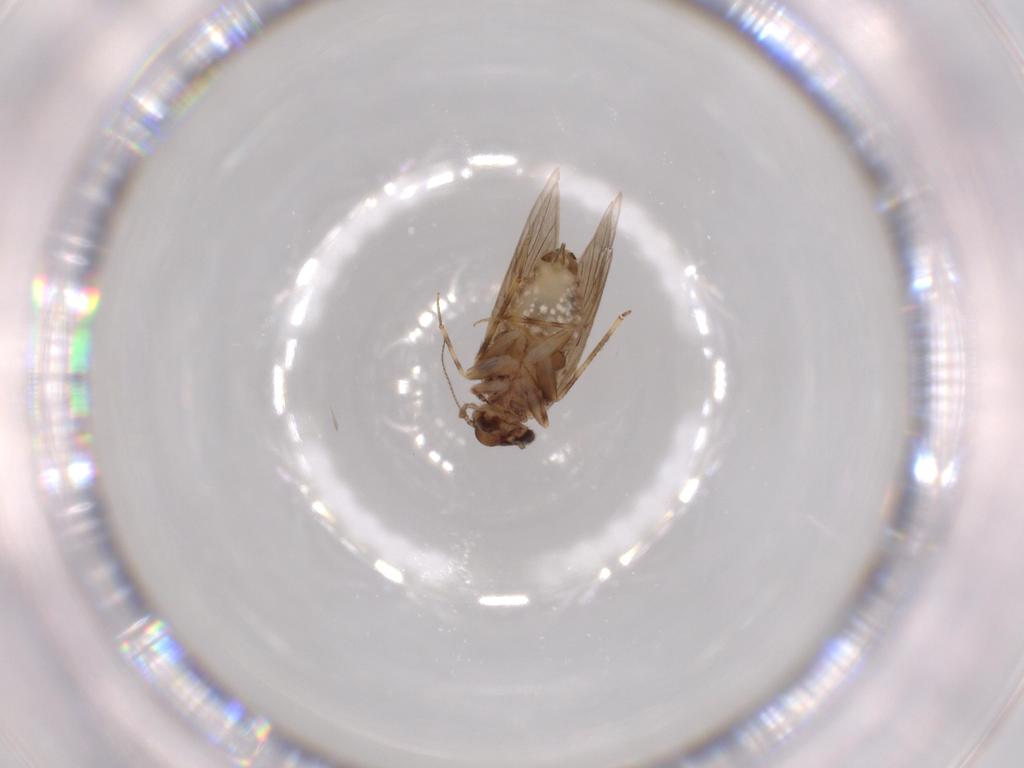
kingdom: Animalia
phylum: Arthropoda
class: Insecta
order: Psocodea
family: Lepidopsocidae
